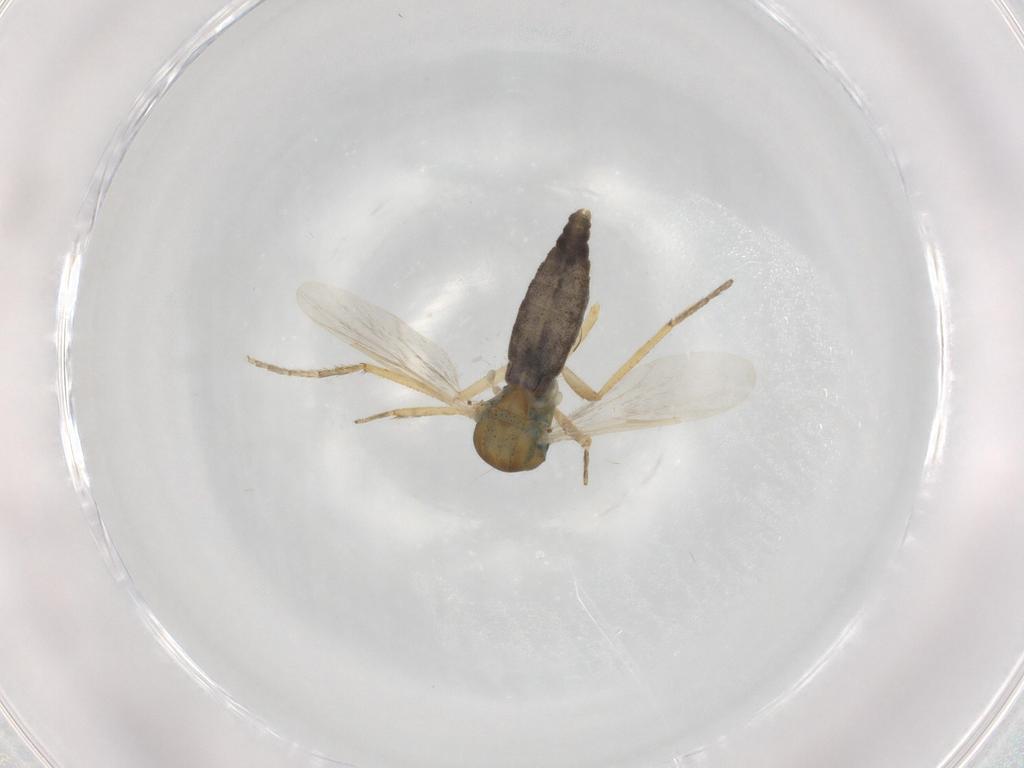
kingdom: Animalia
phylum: Arthropoda
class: Insecta
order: Diptera
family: Ceratopogonidae
